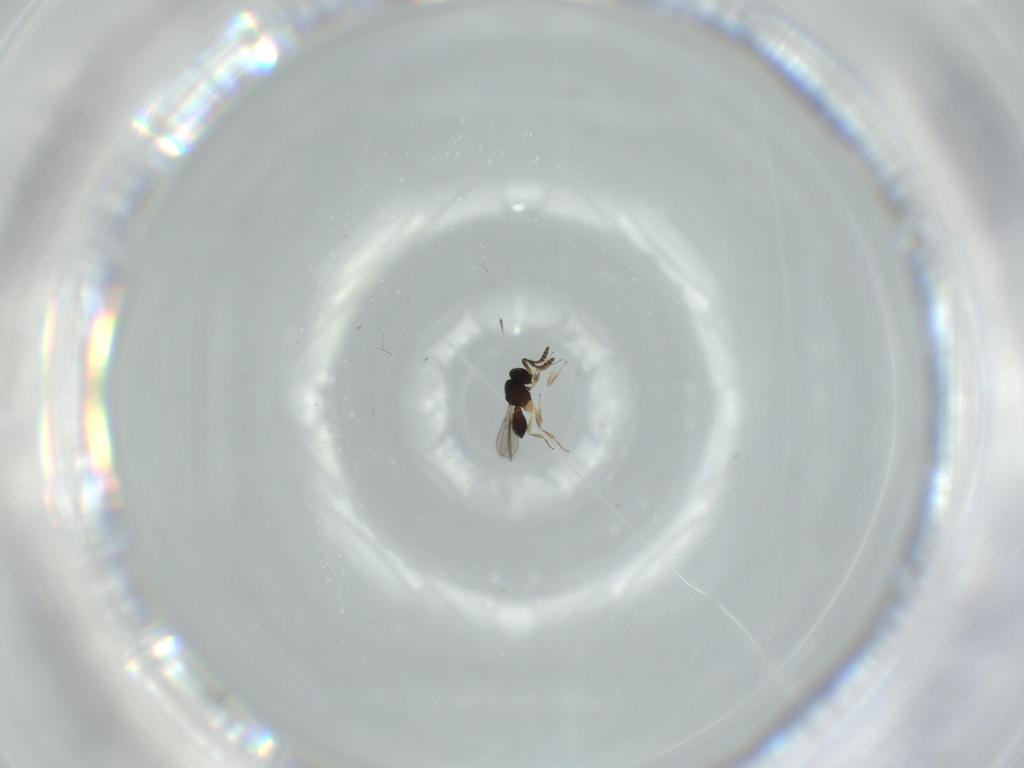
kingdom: Animalia
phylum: Arthropoda
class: Insecta
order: Hymenoptera
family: Scelionidae
